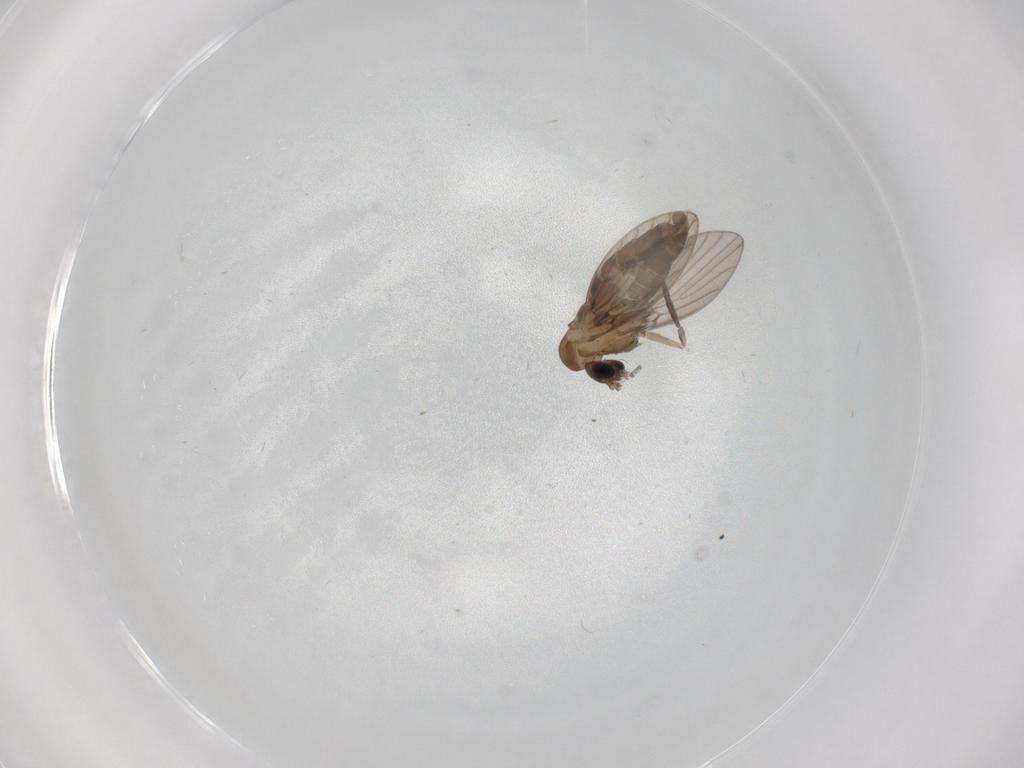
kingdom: Animalia
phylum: Arthropoda
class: Insecta
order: Diptera
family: Psychodidae
